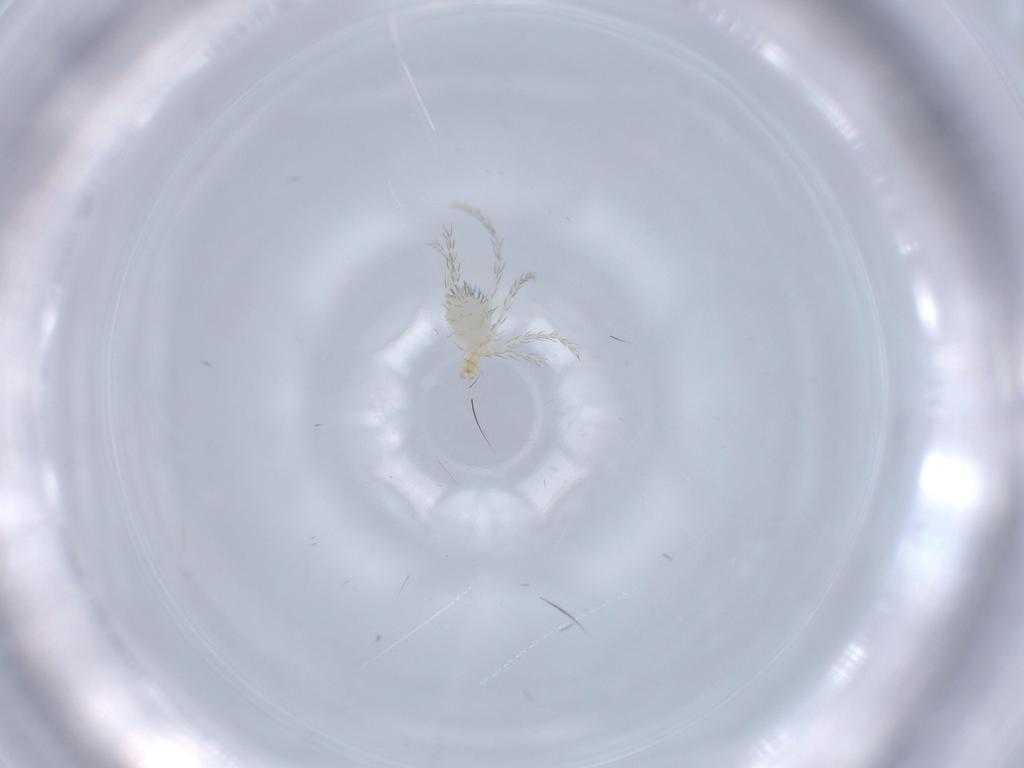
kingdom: Animalia
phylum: Arthropoda
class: Arachnida
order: Trombidiformes
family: Erythraeidae
